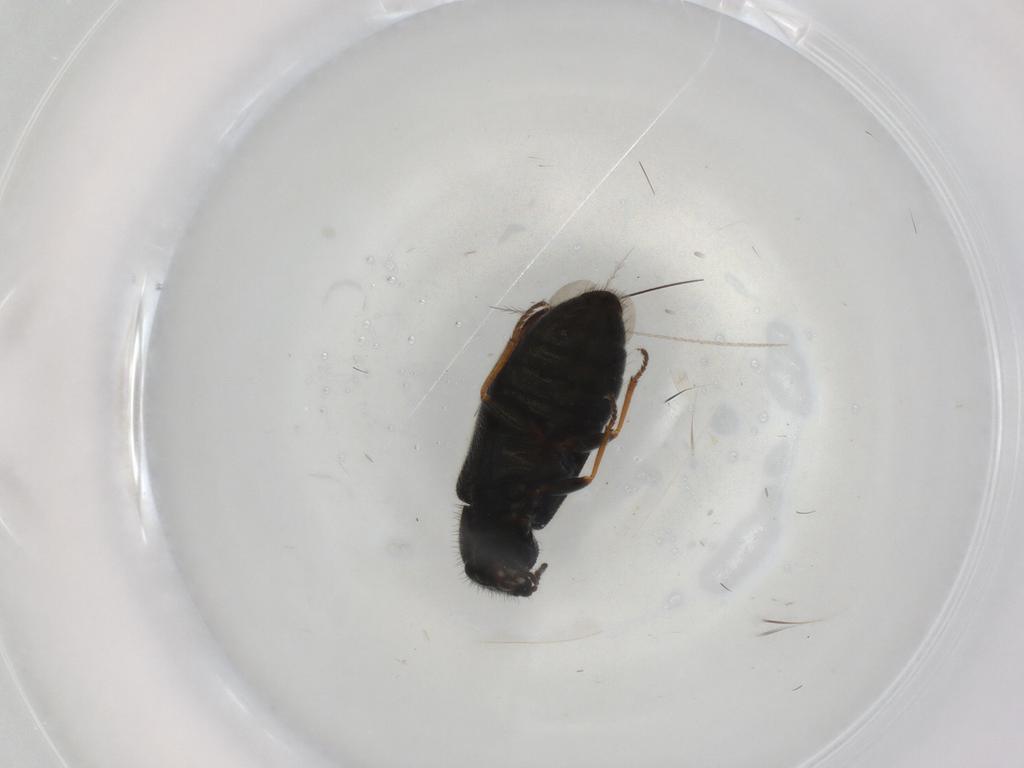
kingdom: Animalia
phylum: Arthropoda
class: Insecta
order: Coleoptera
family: Melyridae
